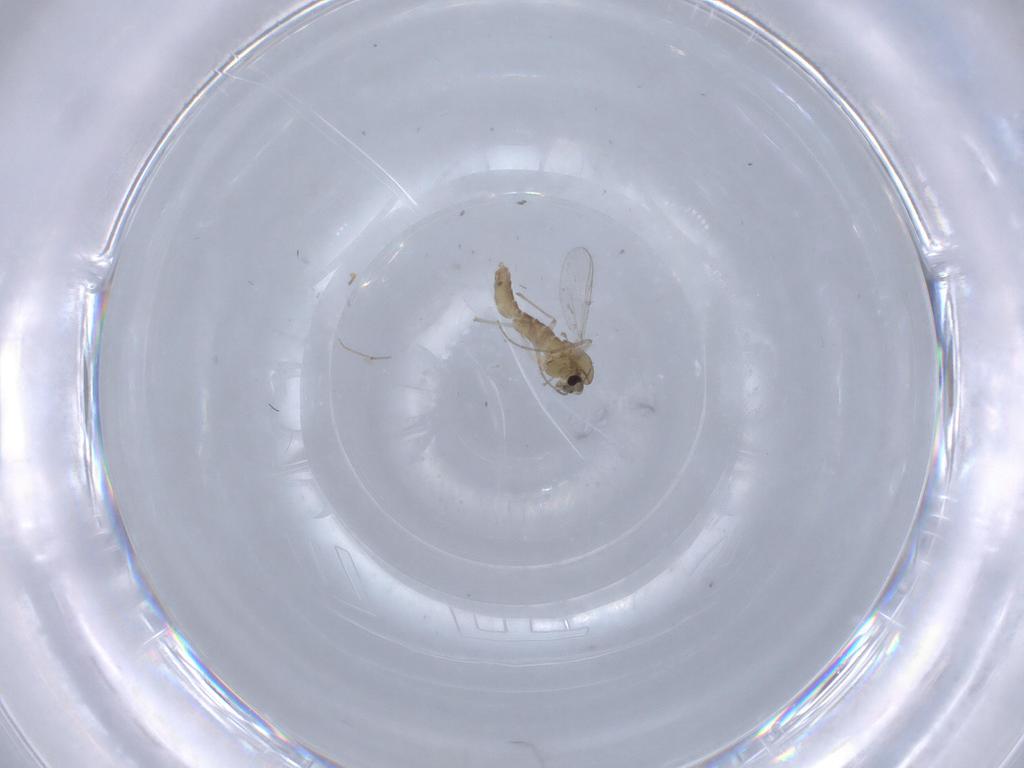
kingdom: Animalia
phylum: Arthropoda
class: Insecta
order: Diptera
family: Chironomidae
